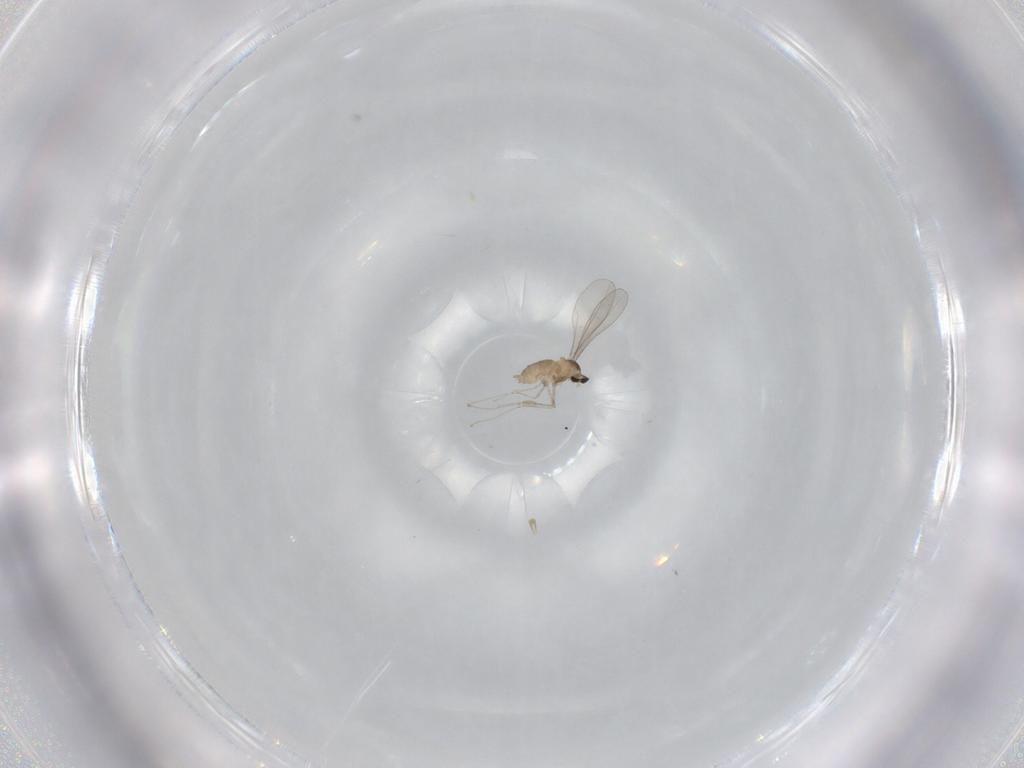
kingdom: Animalia
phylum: Arthropoda
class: Insecta
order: Diptera
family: Cecidomyiidae
